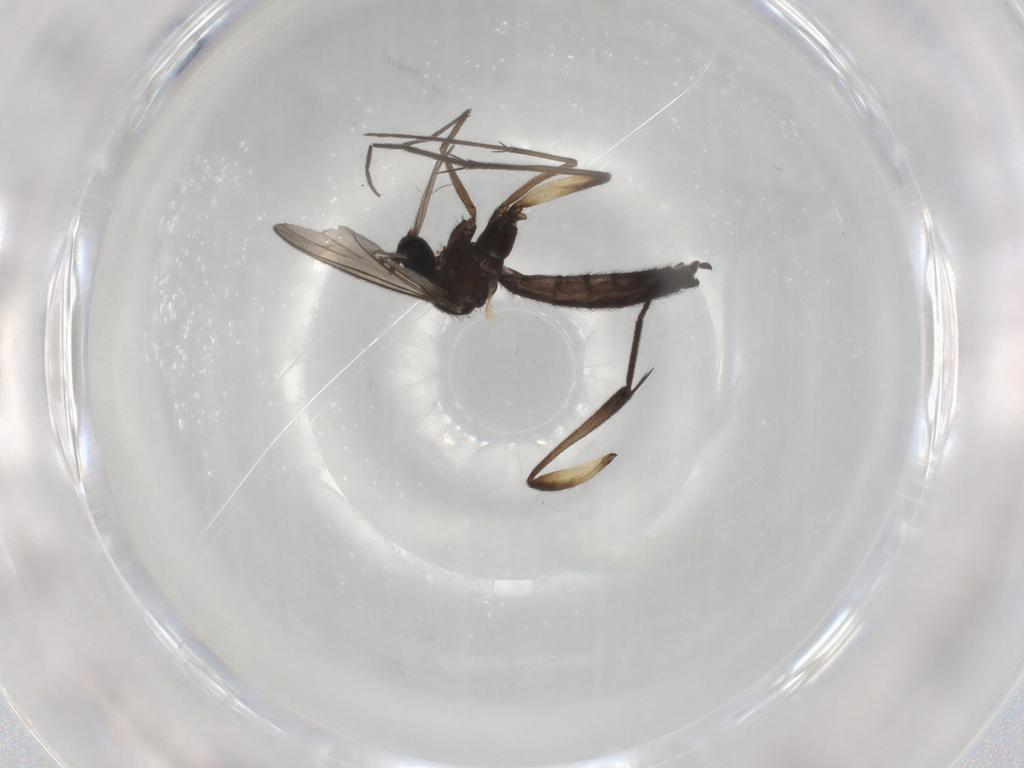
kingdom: Animalia
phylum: Arthropoda
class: Insecta
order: Diptera
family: Keroplatidae
